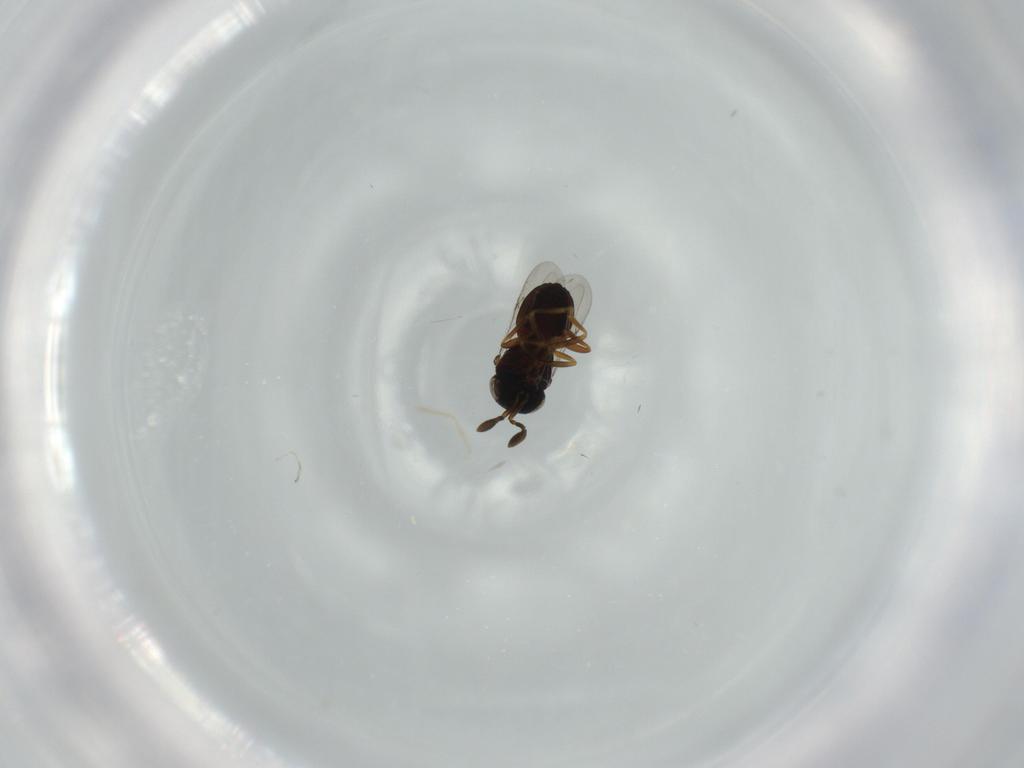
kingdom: Animalia
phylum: Arthropoda
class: Insecta
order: Coleoptera
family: Curculionidae
